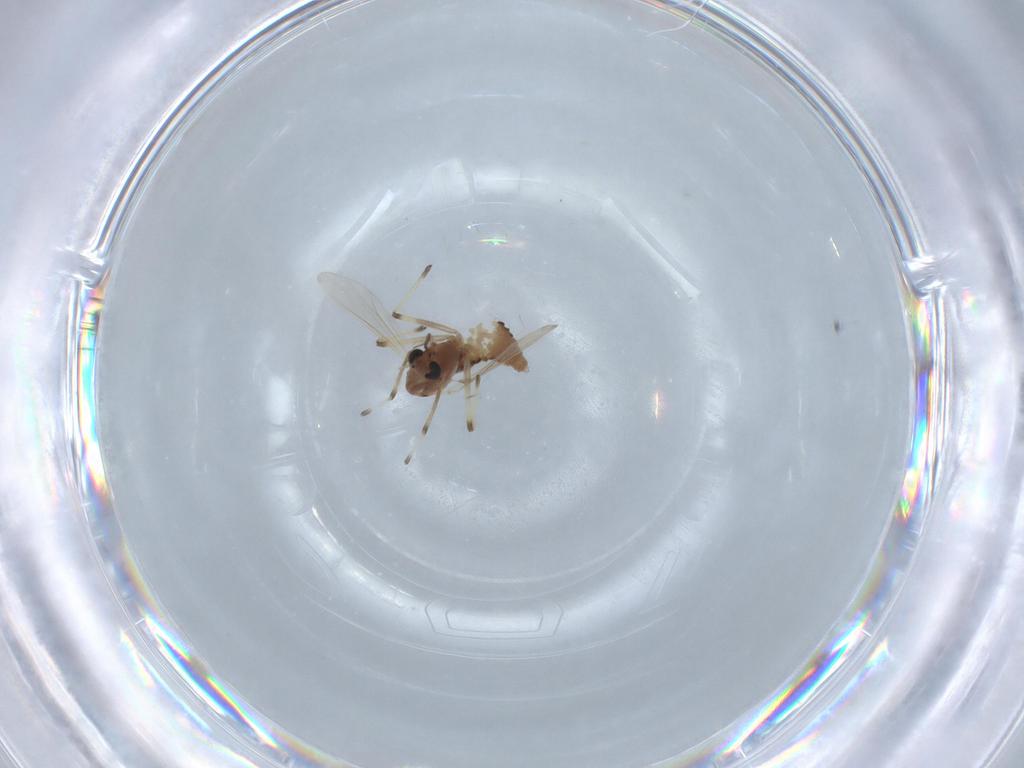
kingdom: Animalia
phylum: Arthropoda
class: Insecta
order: Diptera
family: Chironomidae
